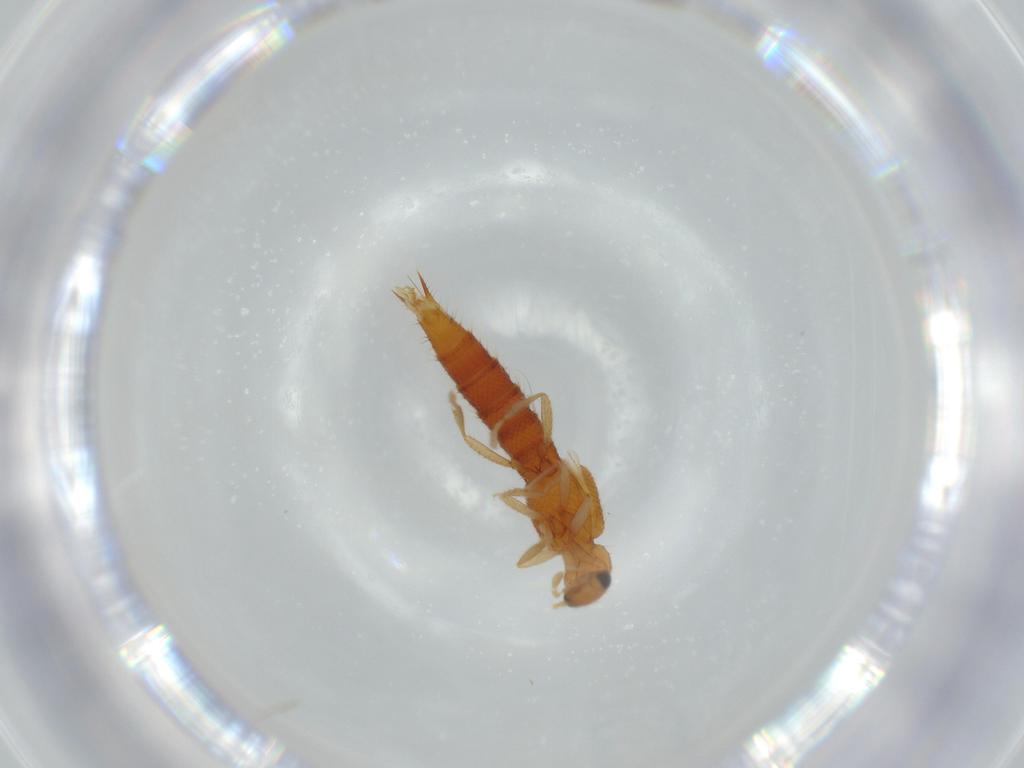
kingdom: Animalia
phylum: Arthropoda
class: Insecta
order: Coleoptera
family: Staphylinidae
